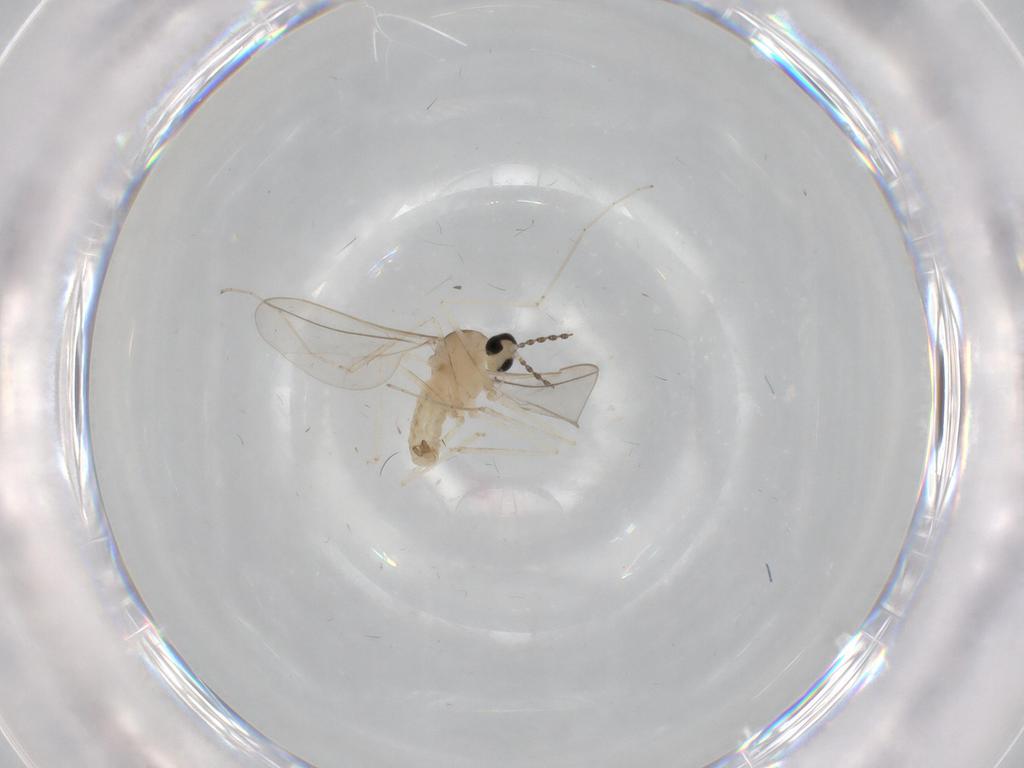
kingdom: Animalia
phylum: Arthropoda
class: Insecta
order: Diptera
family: Cecidomyiidae
